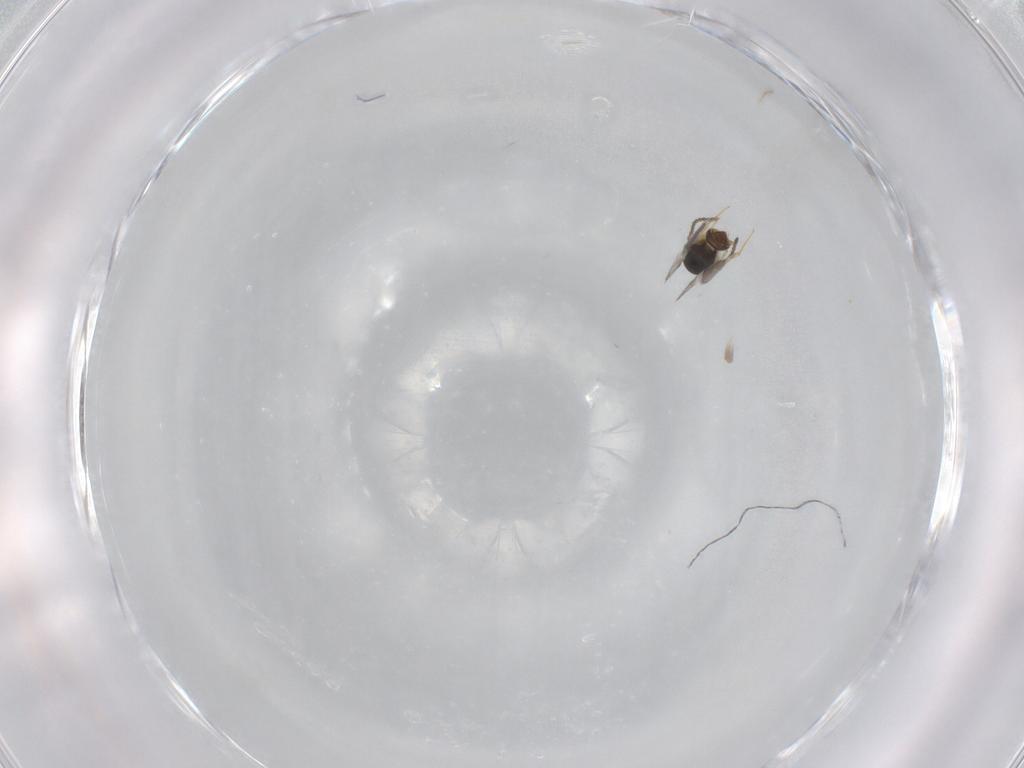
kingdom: Animalia
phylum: Arthropoda
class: Insecta
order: Hymenoptera
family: Scelionidae
